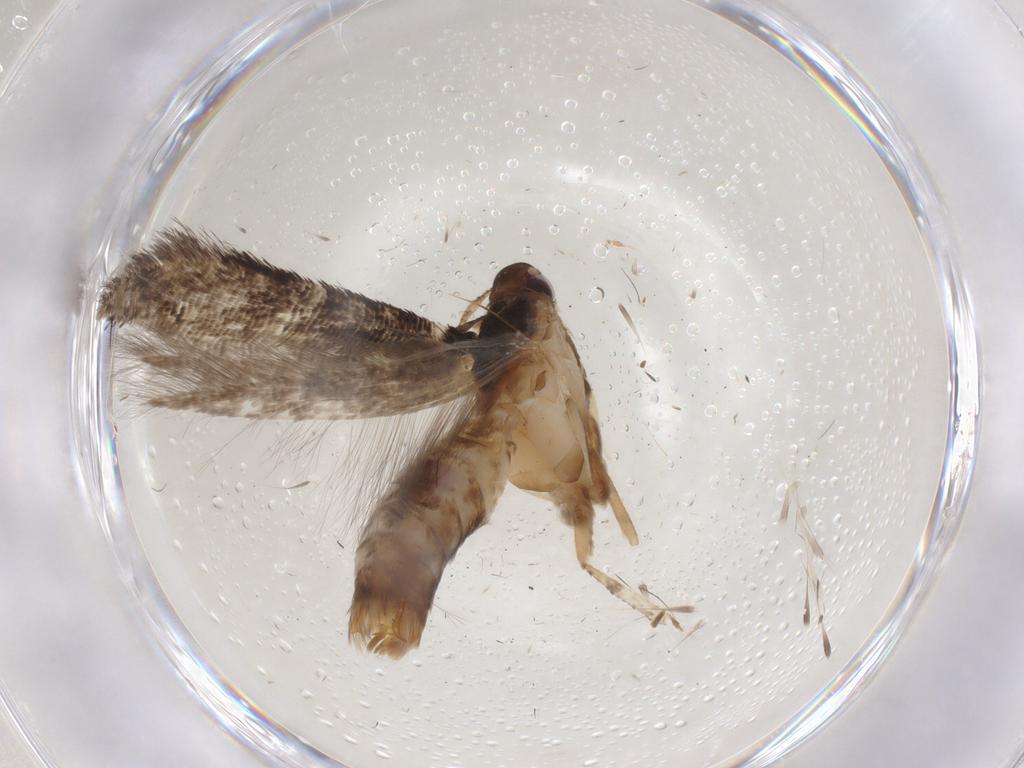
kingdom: Animalia
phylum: Arthropoda
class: Insecta
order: Lepidoptera
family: Cosmopterigidae
